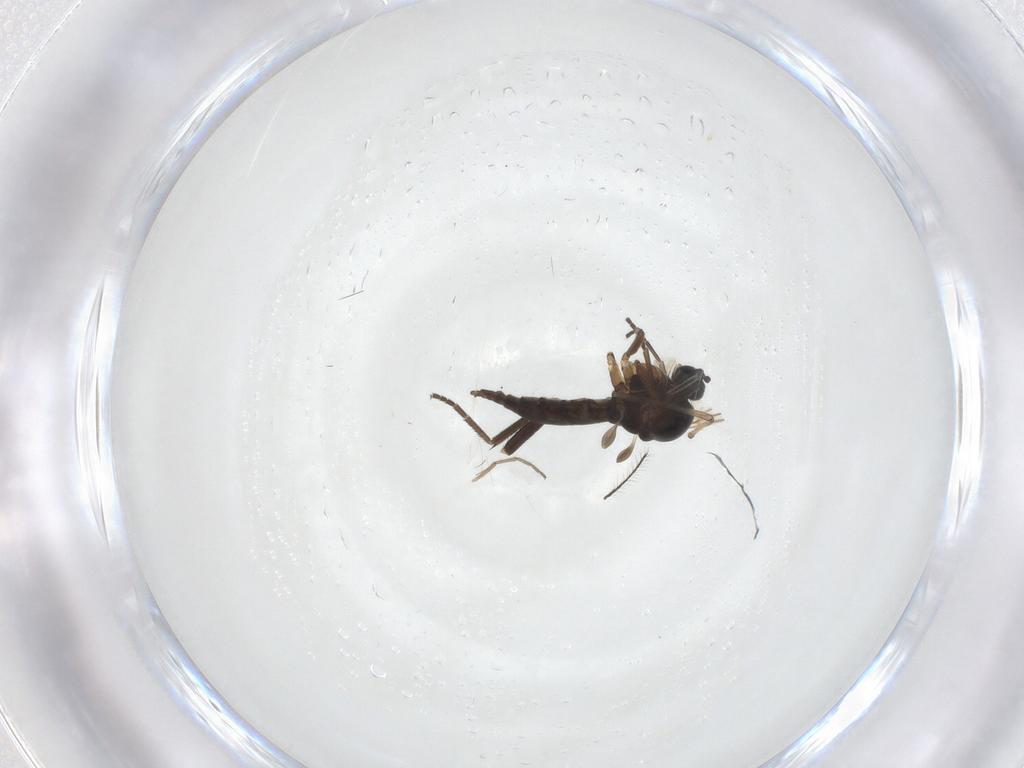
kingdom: Animalia
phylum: Arthropoda
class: Insecta
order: Diptera
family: Sciaridae
